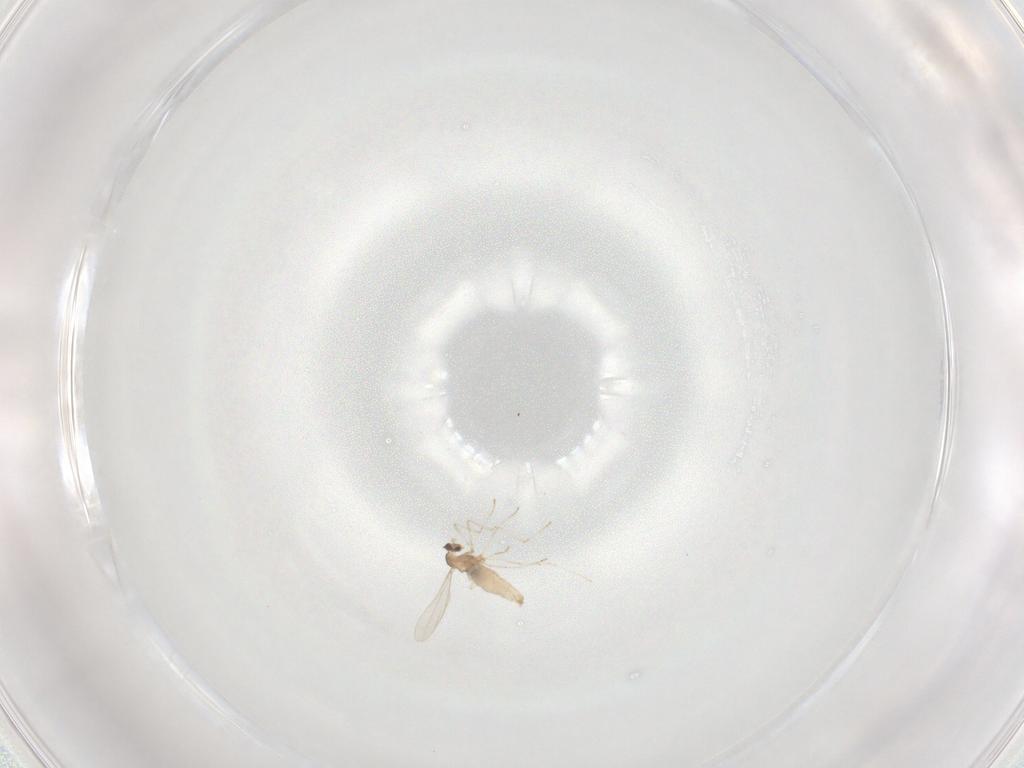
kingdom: Animalia
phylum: Arthropoda
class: Insecta
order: Diptera
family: Cecidomyiidae
